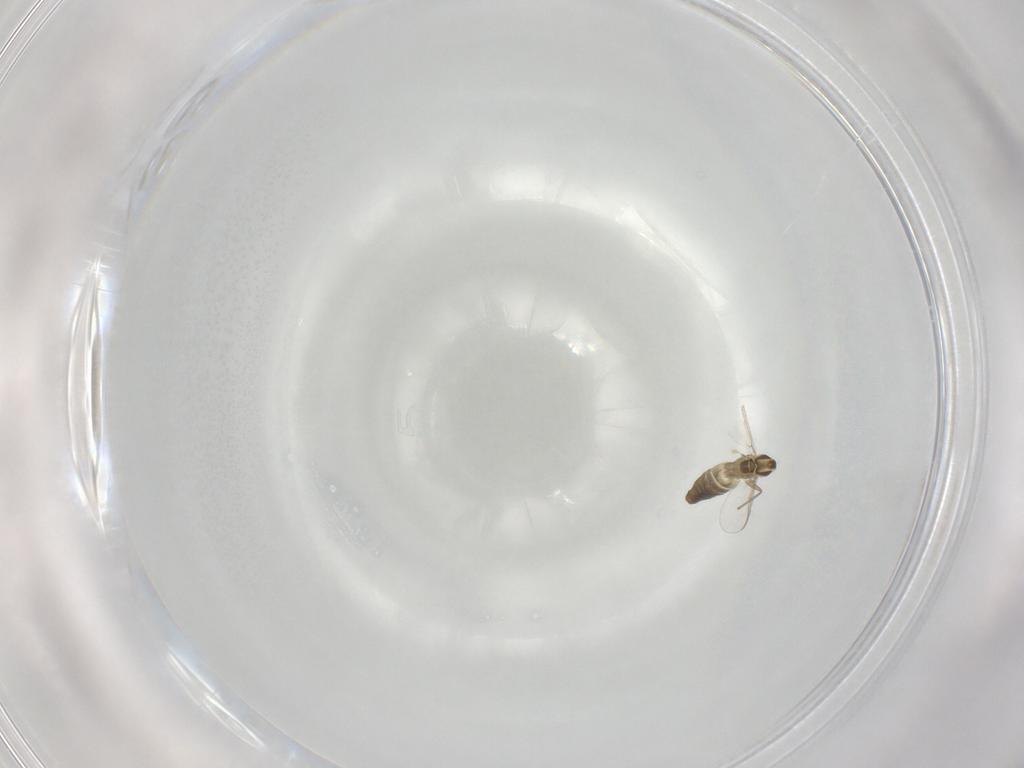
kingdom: Animalia
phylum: Arthropoda
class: Insecta
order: Diptera
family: Chironomidae
